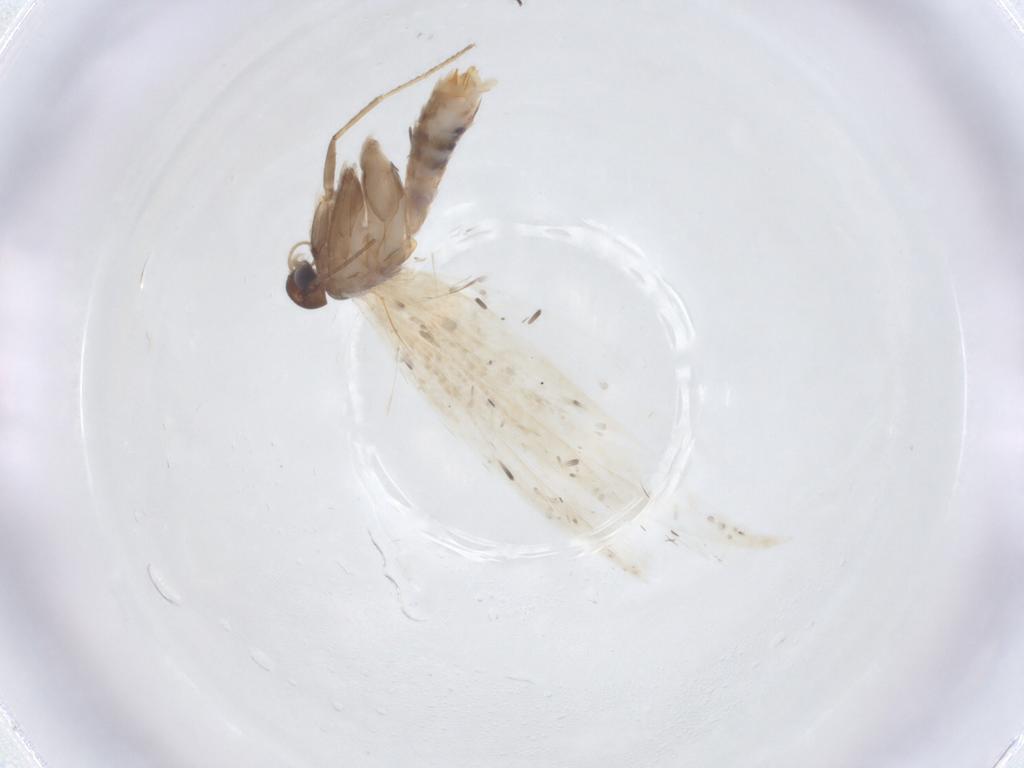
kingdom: Animalia
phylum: Arthropoda
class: Insecta
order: Lepidoptera
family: Gelechiidae
